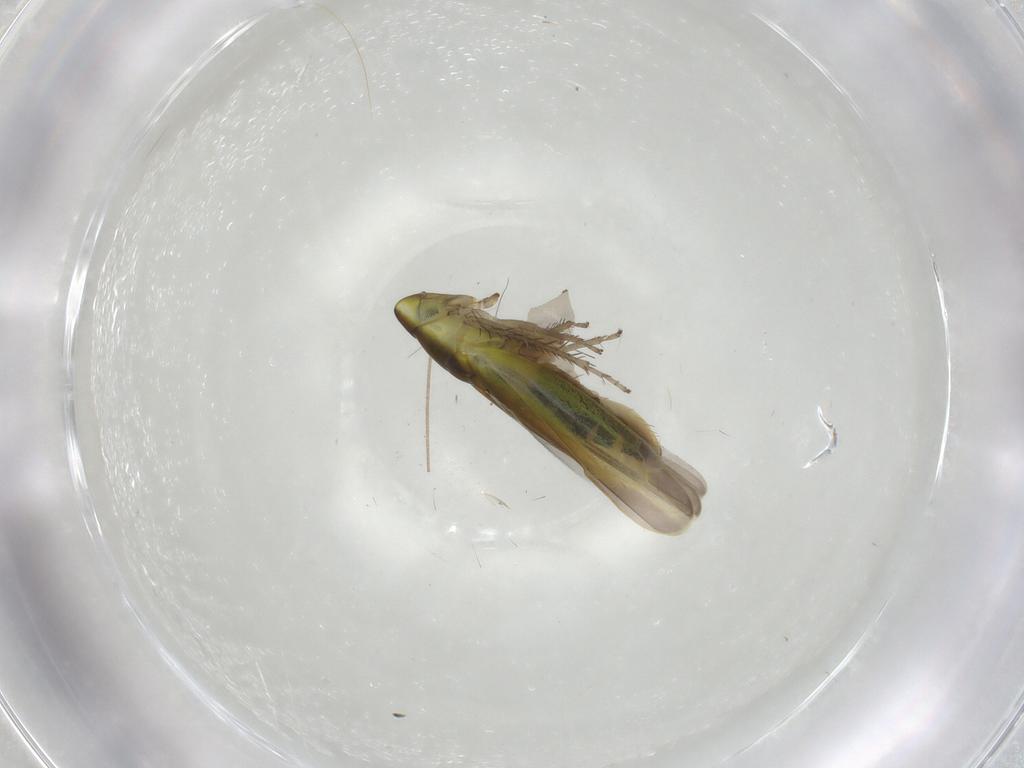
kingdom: Animalia
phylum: Arthropoda
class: Insecta
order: Hemiptera
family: Cicadellidae
